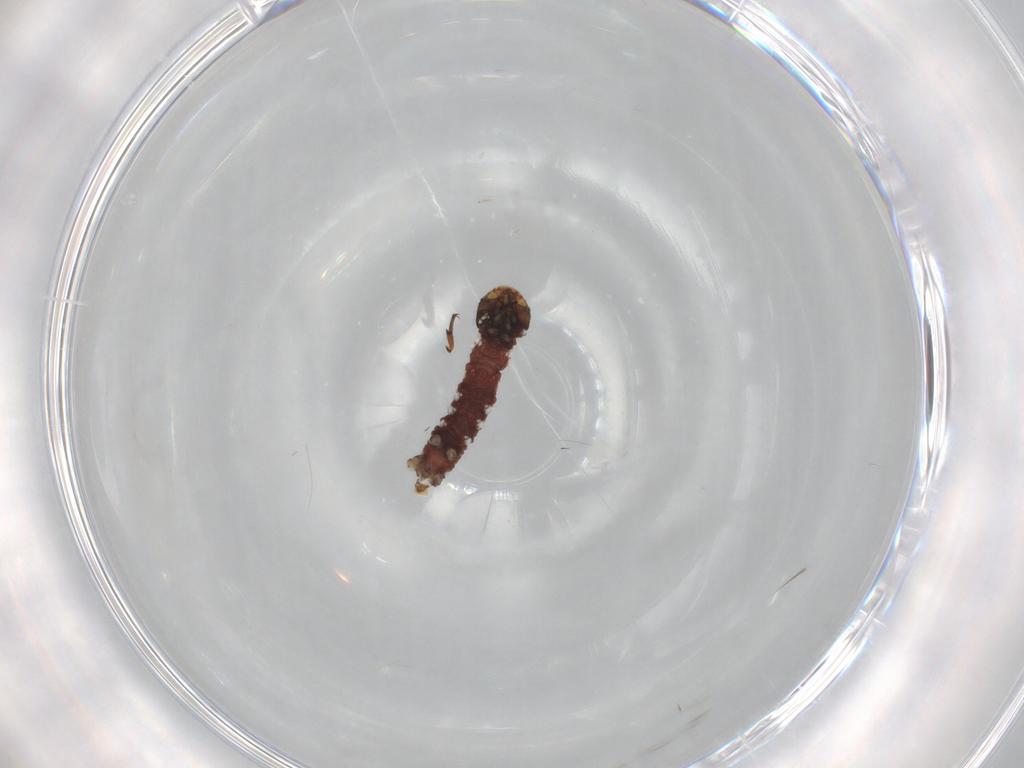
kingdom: Animalia
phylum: Arthropoda
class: Insecta
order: Lepidoptera
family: Geometridae
